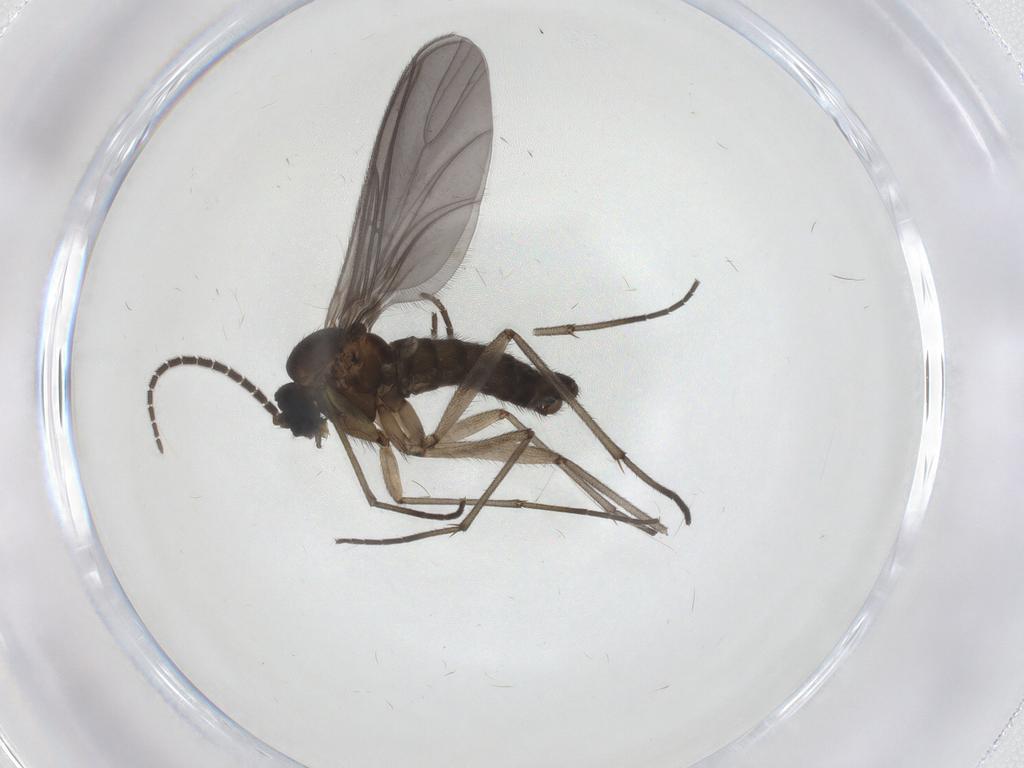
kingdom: Animalia
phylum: Arthropoda
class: Insecta
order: Diptera
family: Sciaridae
